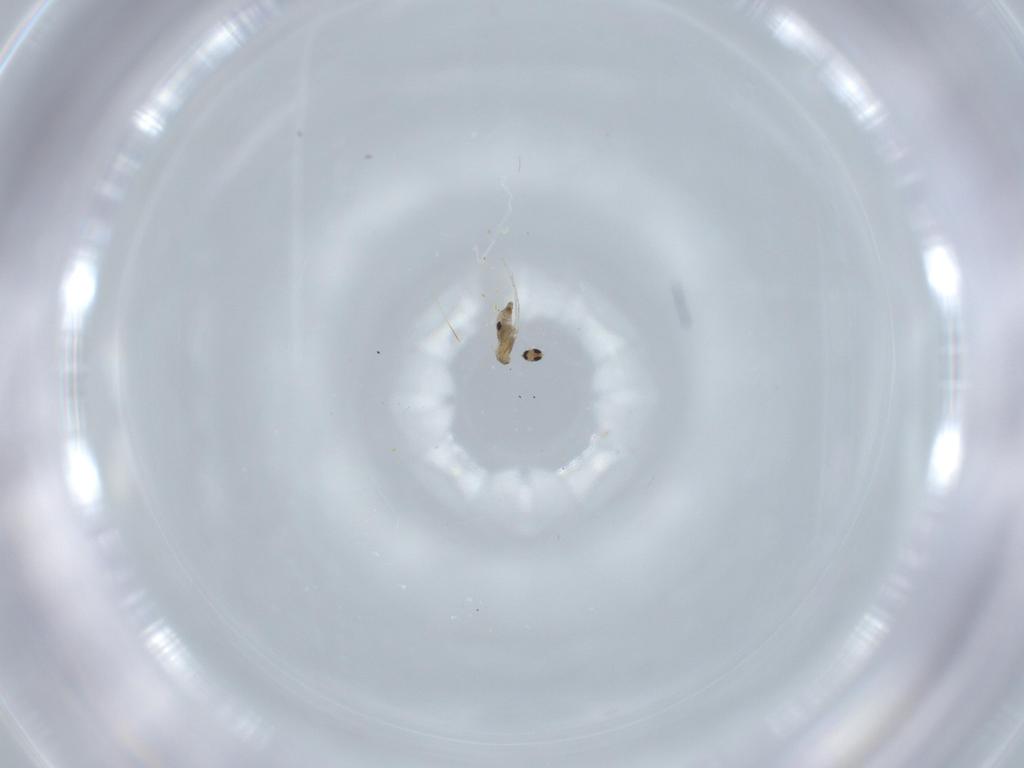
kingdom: Animalia
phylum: Arthropoda
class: Insecta
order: Diptera
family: Cecidomyiidae
